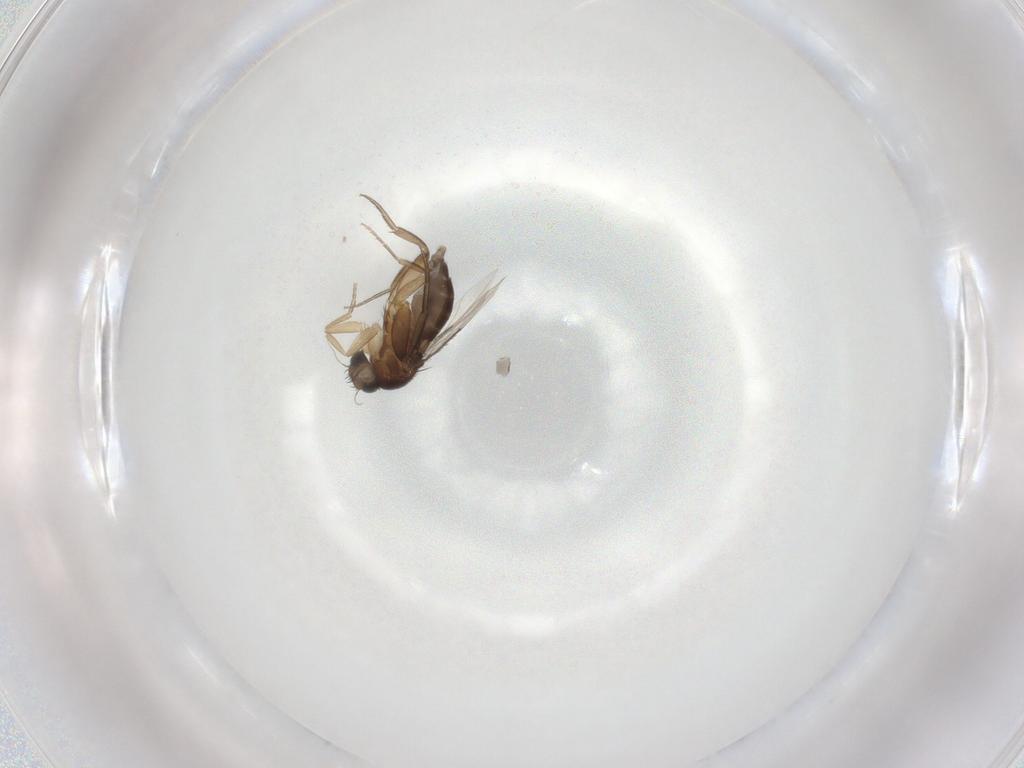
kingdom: Animalia
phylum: Arthropoda
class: Insecta
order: Diptera
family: Phoridae
